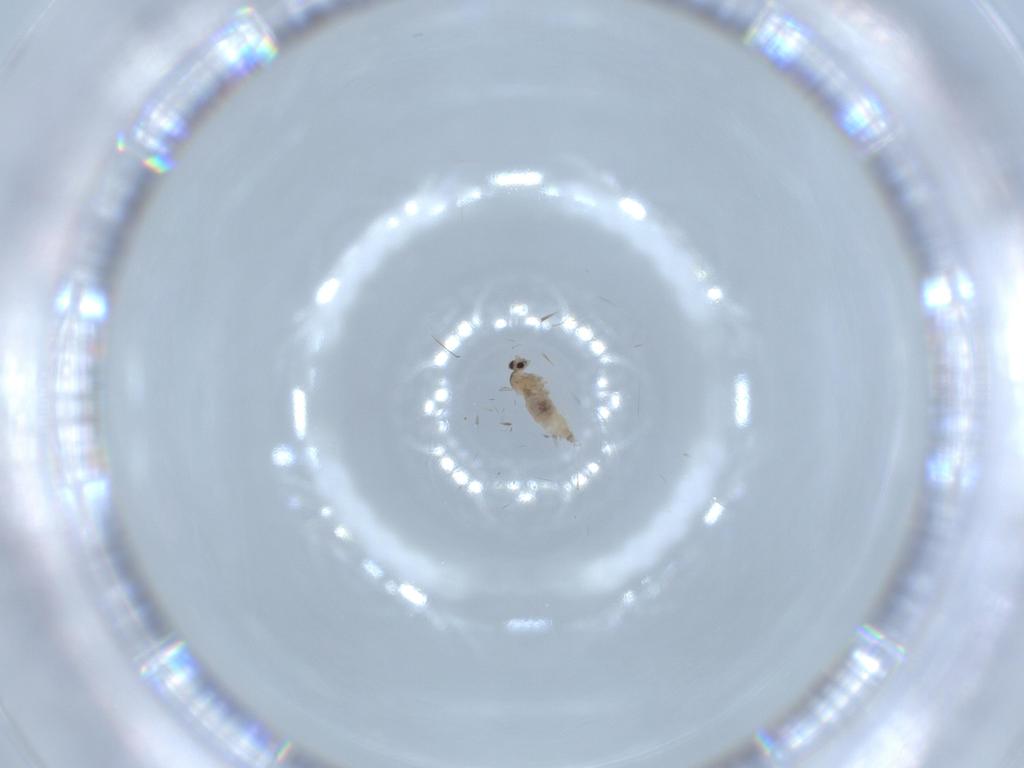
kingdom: Animalia
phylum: Arthropoda
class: Insecta
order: Diptera
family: Cecidomyiidae
